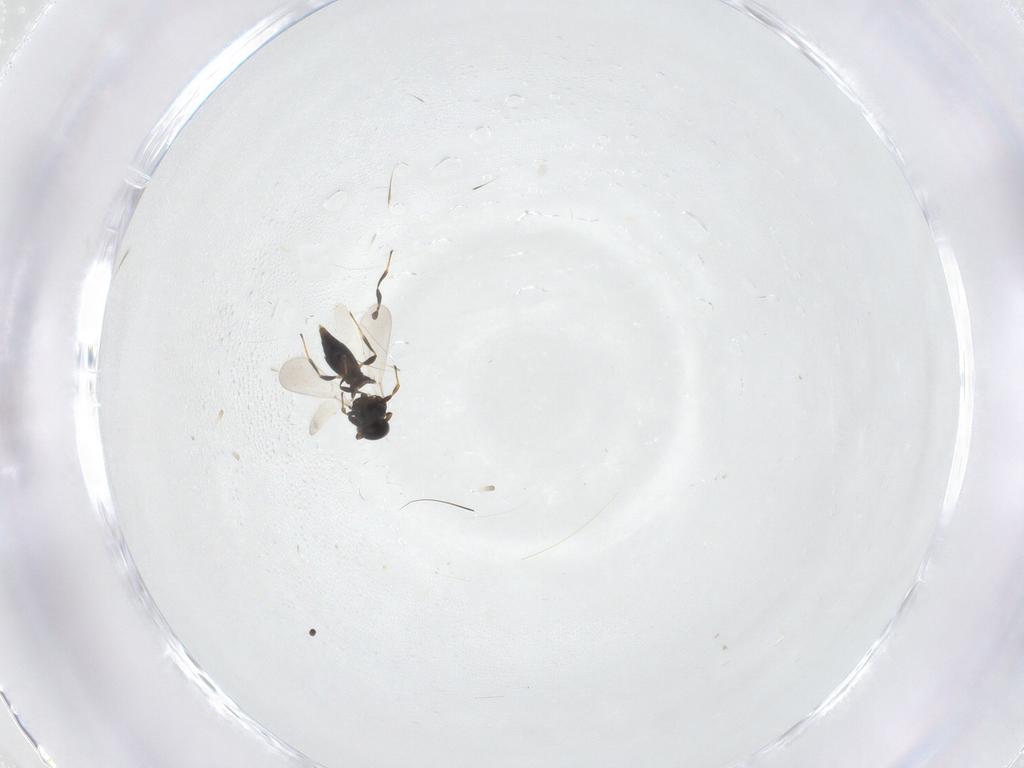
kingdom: Animalia
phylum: Arthropoda
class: Insecta
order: Hymenoptera
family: Platygastridae
